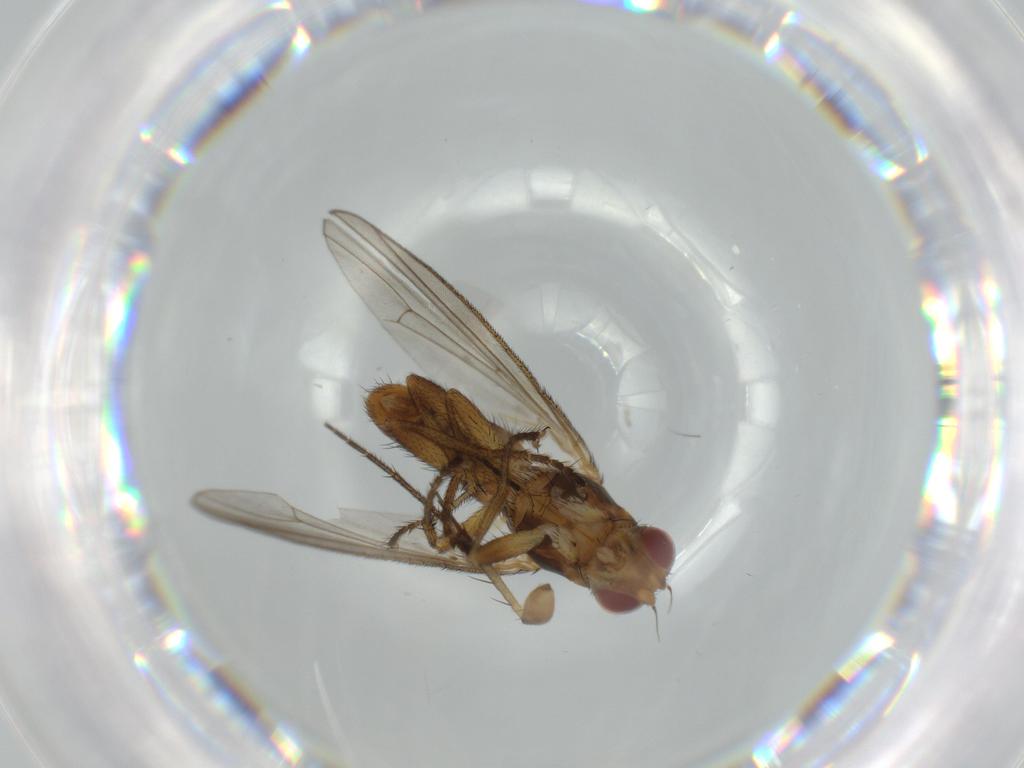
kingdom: Animalia
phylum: Arthropoda
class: Insecta
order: Diptera
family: Heleomyzidae
